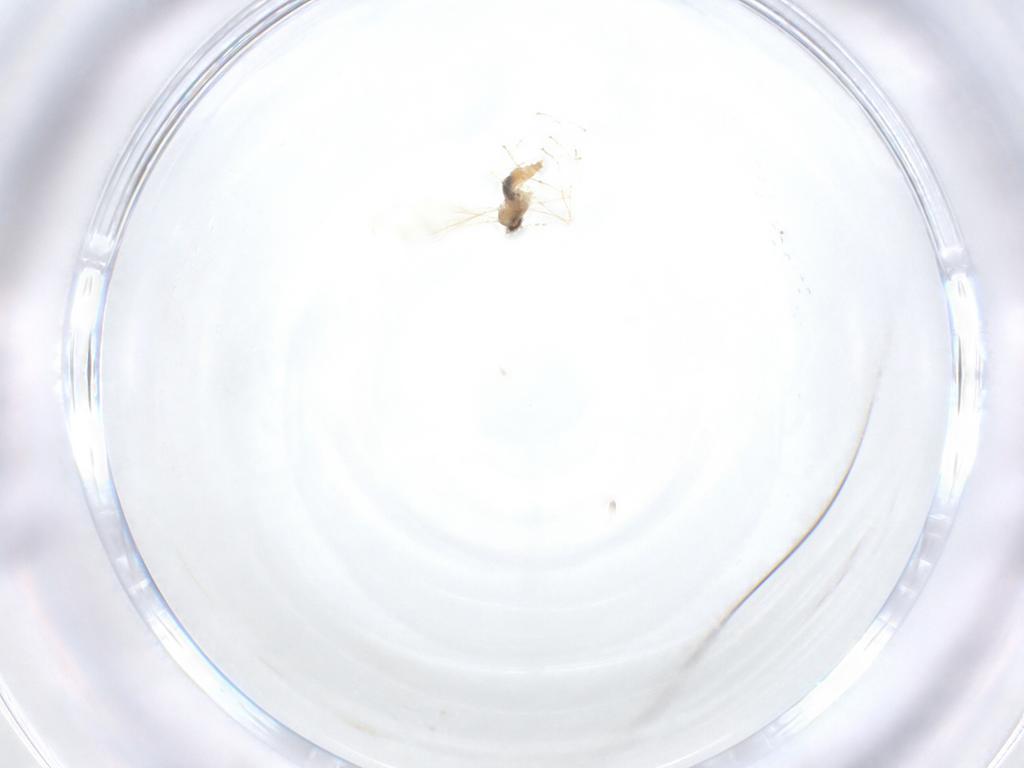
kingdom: Animalia
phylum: Arthropoda
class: Insecta
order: Diptera
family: Cecidomyiidae
